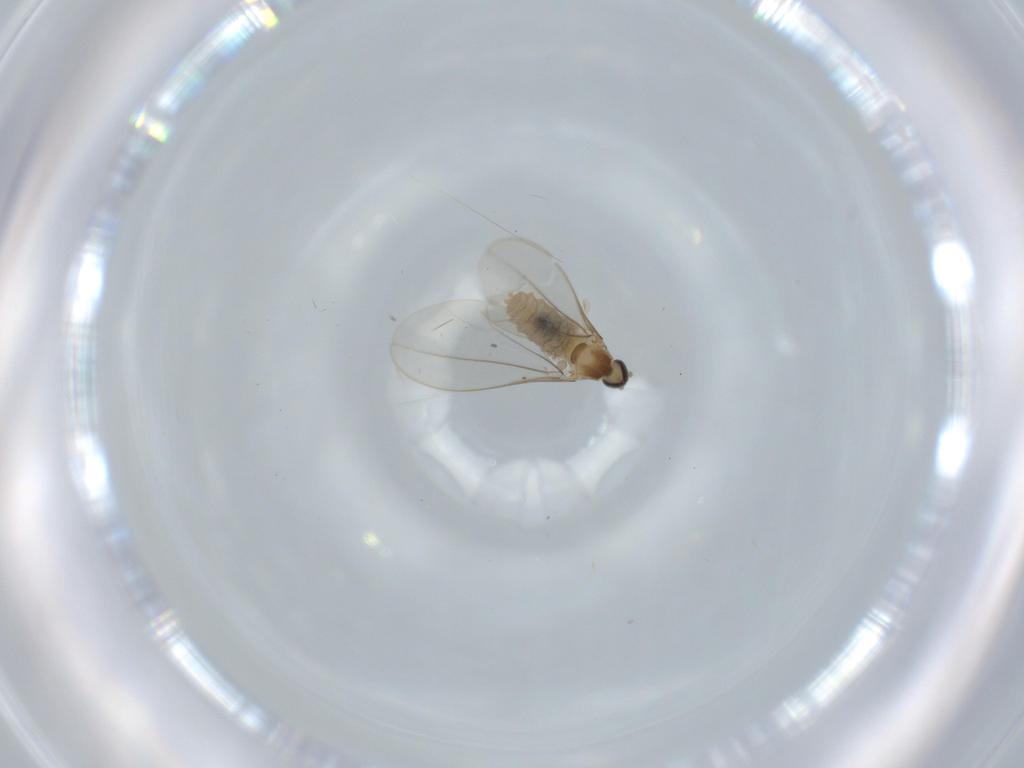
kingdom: Animalia
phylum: Arthropoda
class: Insecta
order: Diptera
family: Cecidomyiidae
